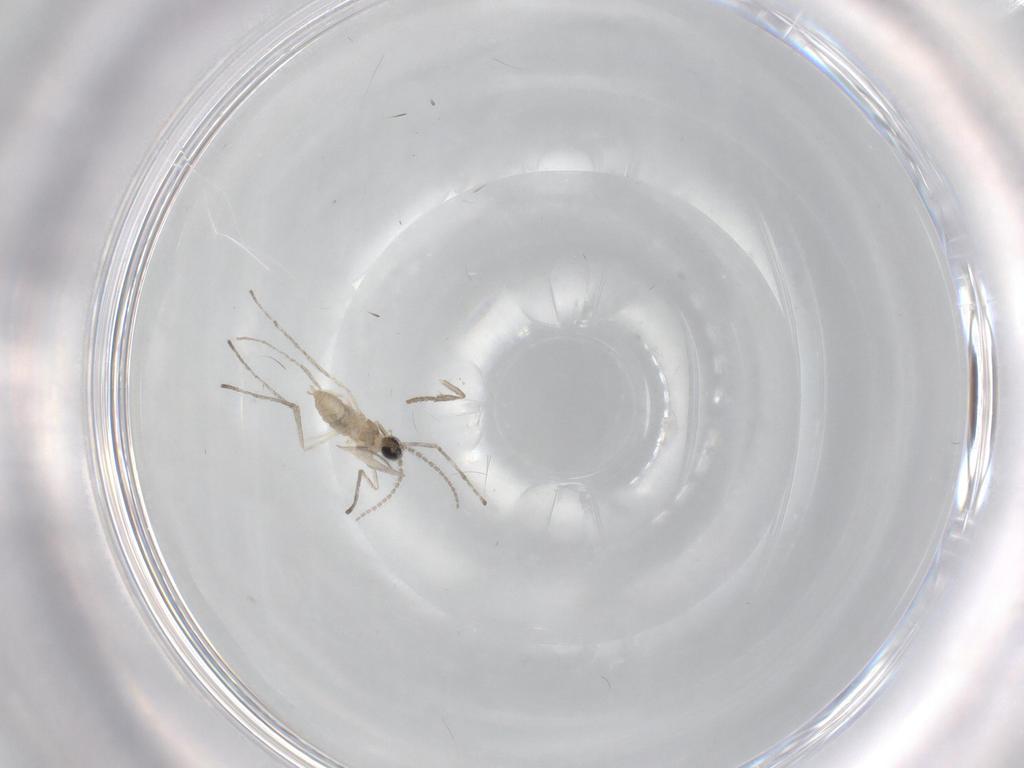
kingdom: Animalia
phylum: Arthropoda
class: Insecta
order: Diptera
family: Cecidomyiidae
